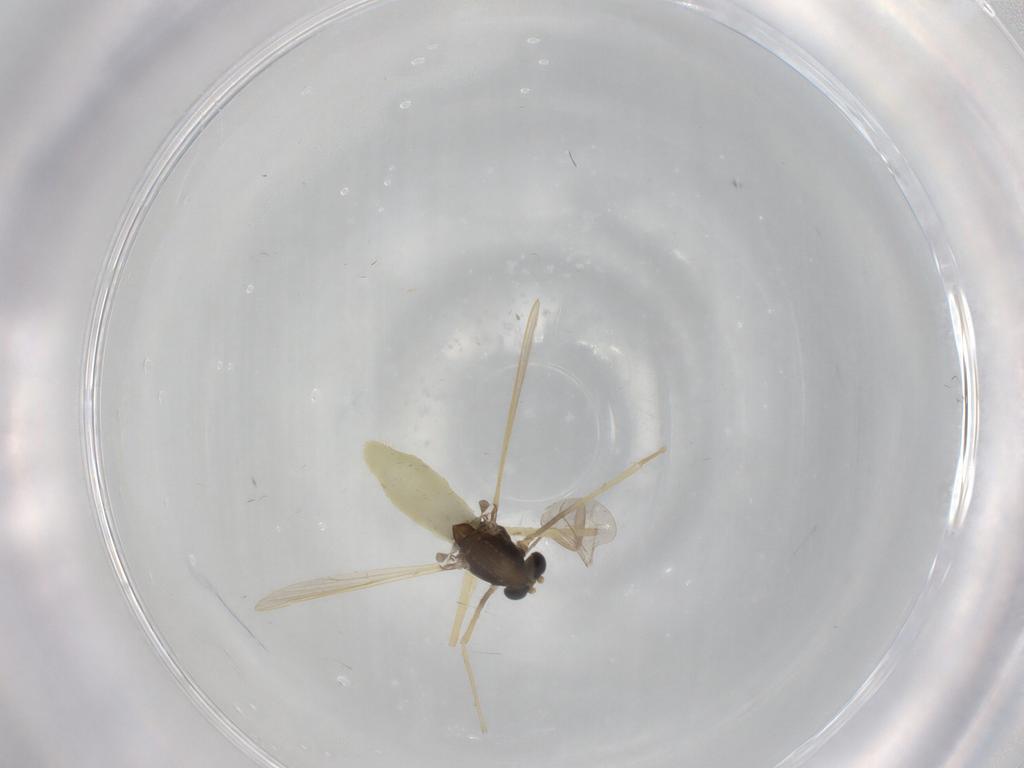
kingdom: Animalia
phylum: Arthropoda
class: Insecta
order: Diptera
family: Chironomidae
